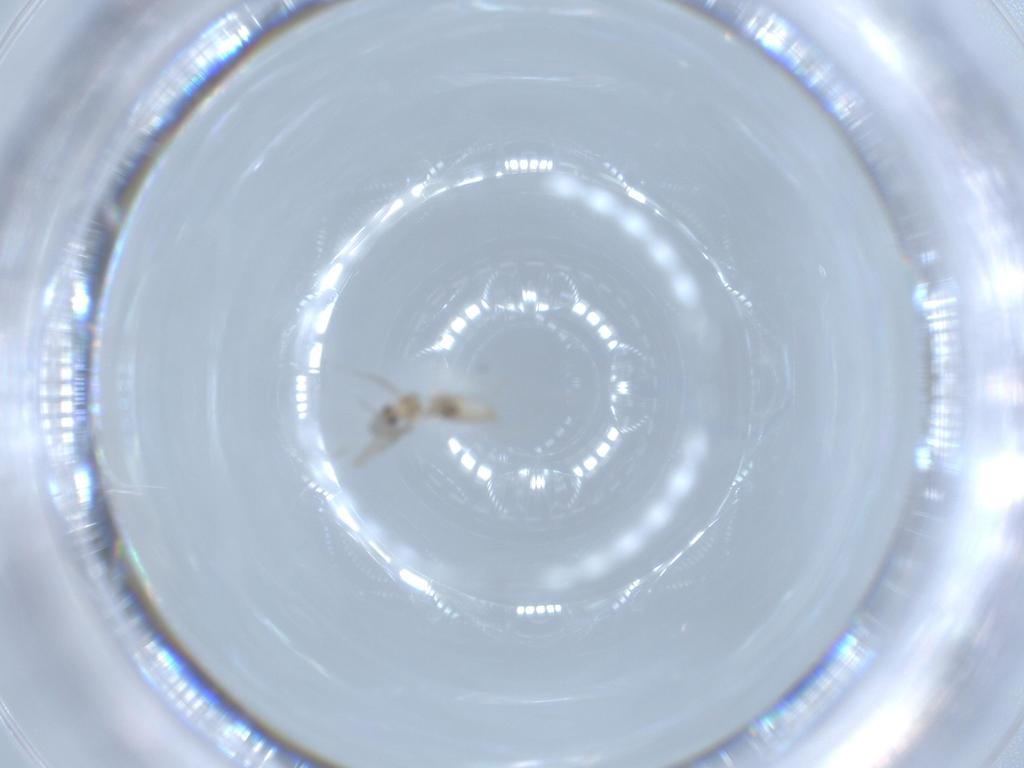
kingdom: Animalia
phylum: Arthropoda
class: Insecta
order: Diptera
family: Cecidomyiidae
